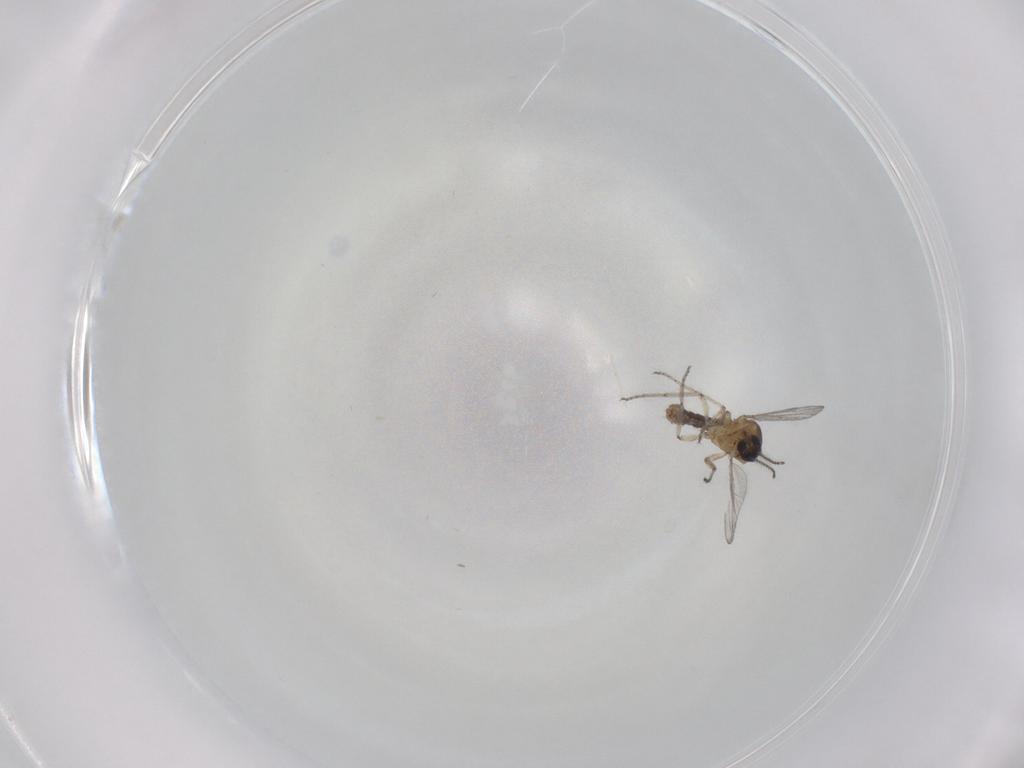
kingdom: Animalia
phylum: Arthropoda
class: Insecta
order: Diptera
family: Ceratopogonidae
